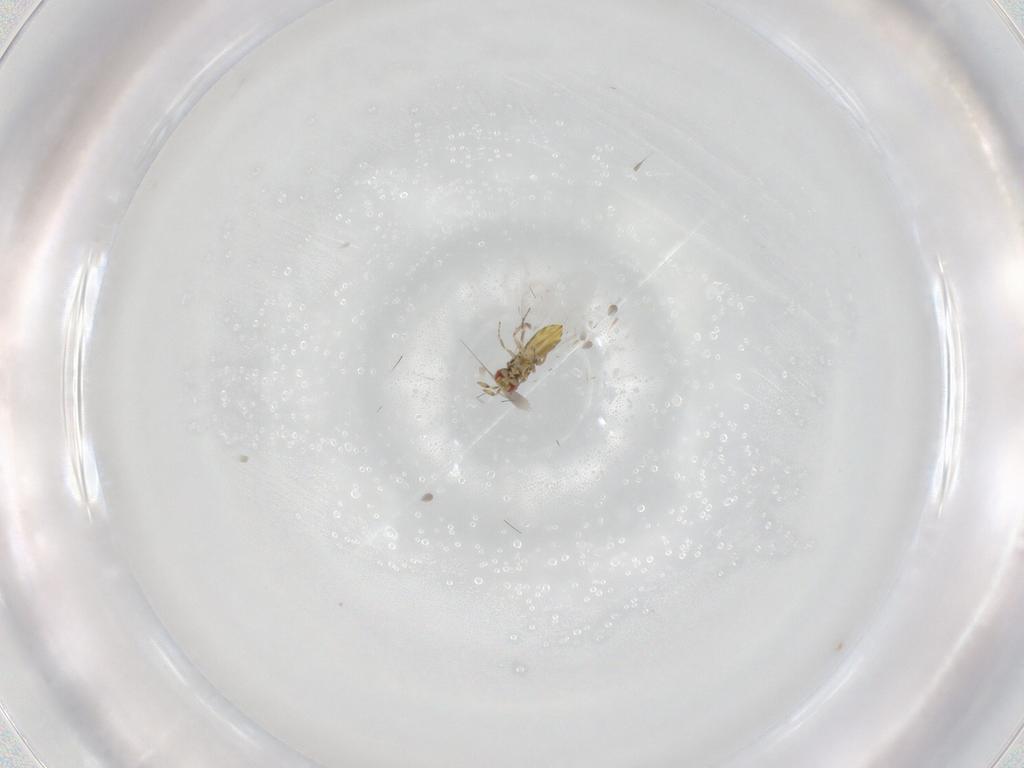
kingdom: Animalia
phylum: Arthropoda
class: Insecta
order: Hymenoptera
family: Trichogrammatidae
